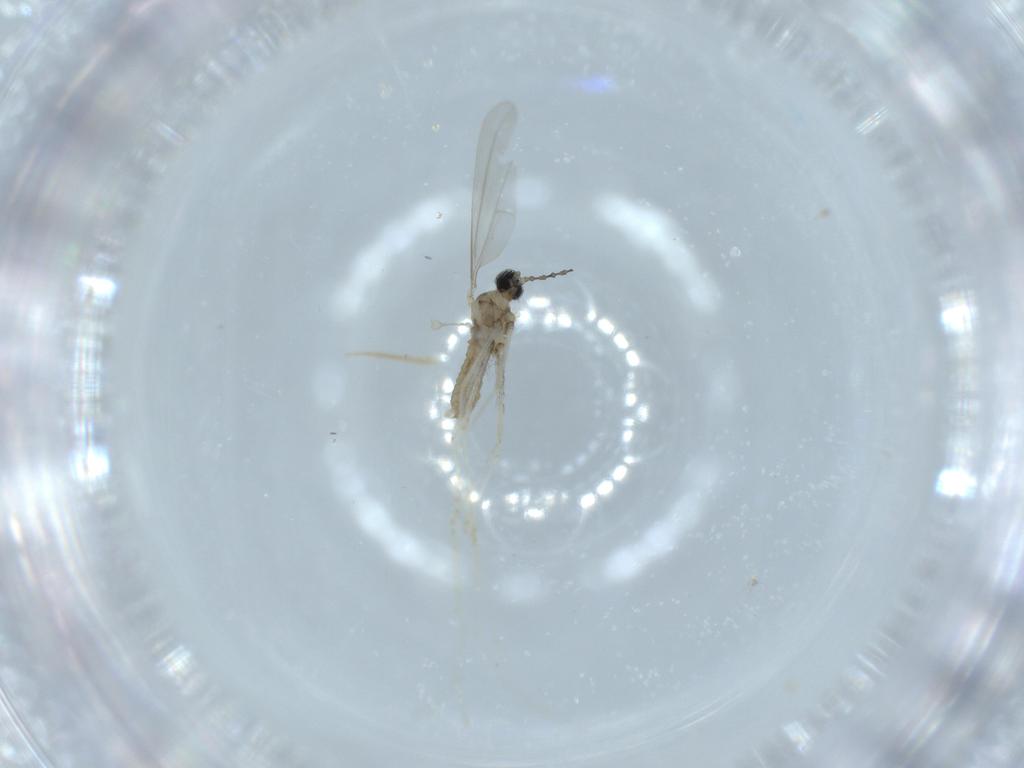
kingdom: Animalia
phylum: Arthropoda
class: Insecta
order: Diptera
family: Cecidomyiidae
